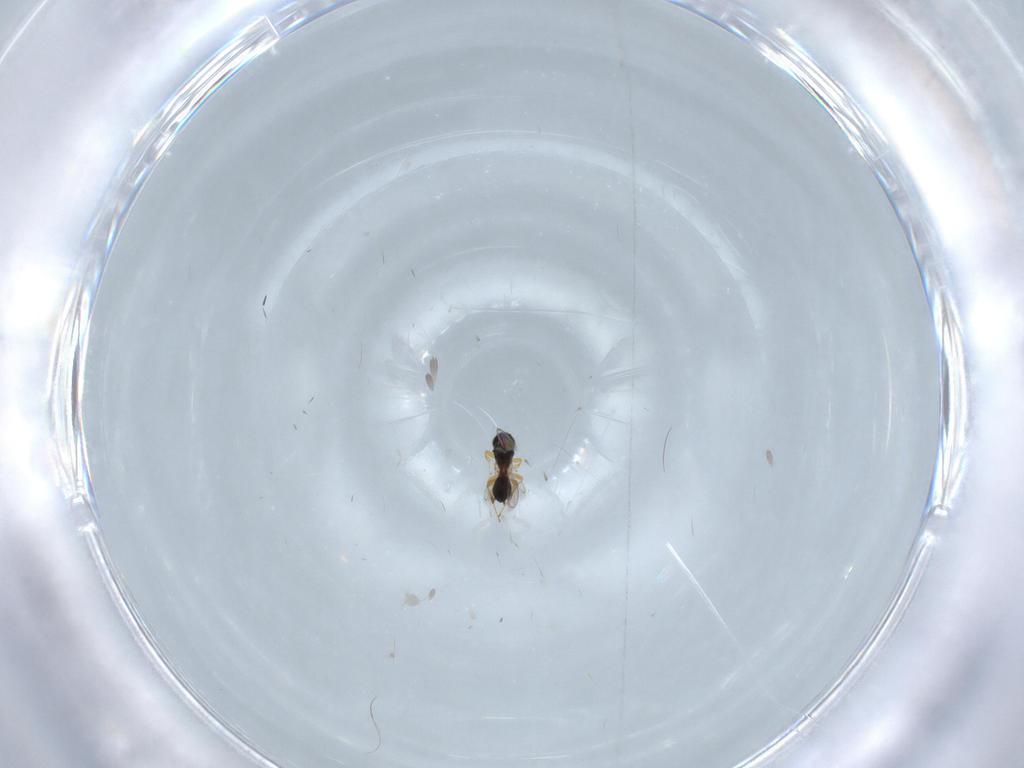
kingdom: Animalia
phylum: Arthropoda
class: Insecta
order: Hymenoptera
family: Platygastridae
